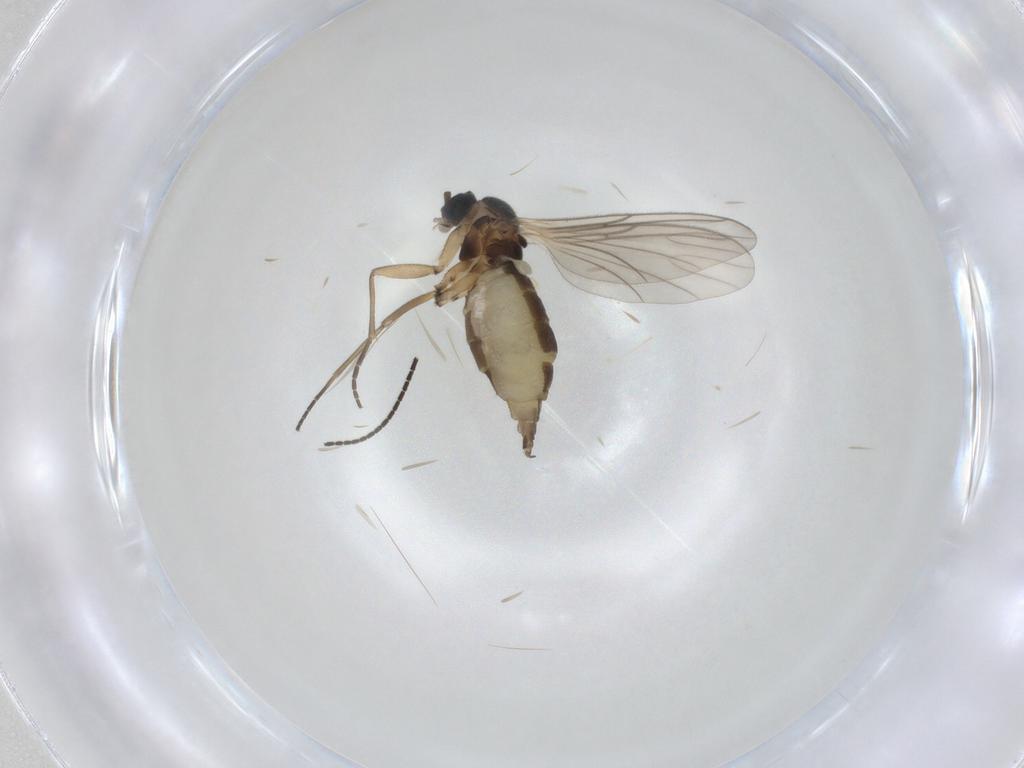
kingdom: Animalia
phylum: Arthropoda
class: Insecta
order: Diptera
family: Sciaridae
